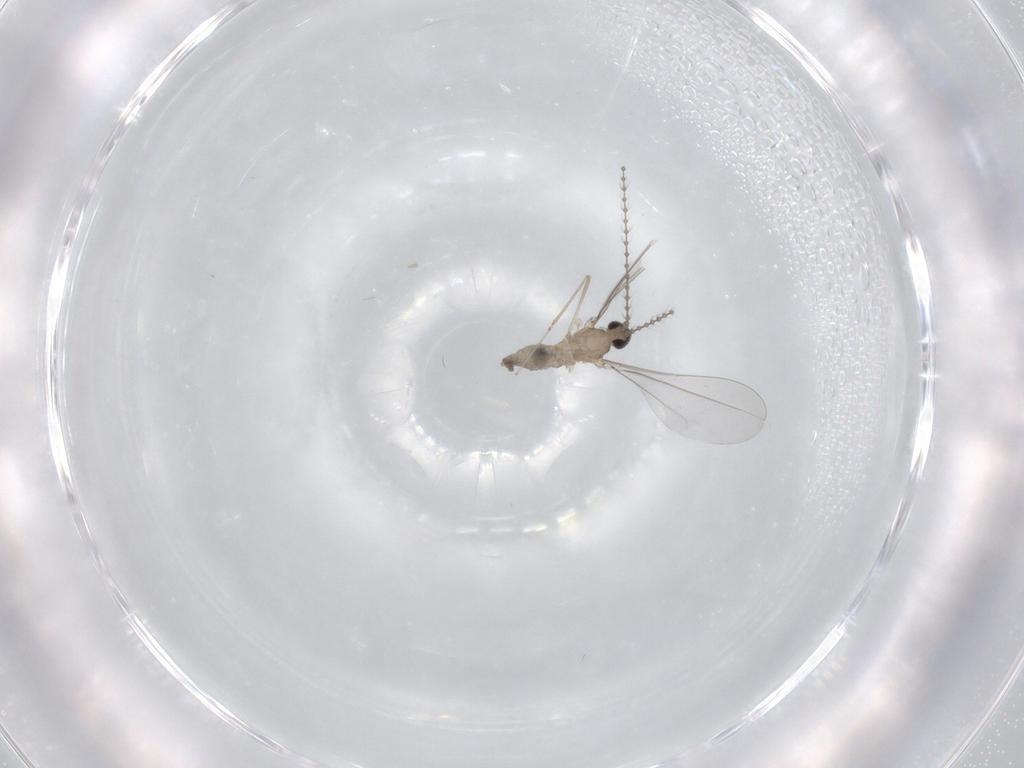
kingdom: Animalia
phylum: Arthropoda
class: Insecta
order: Diptera
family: Cecidomyiidae
